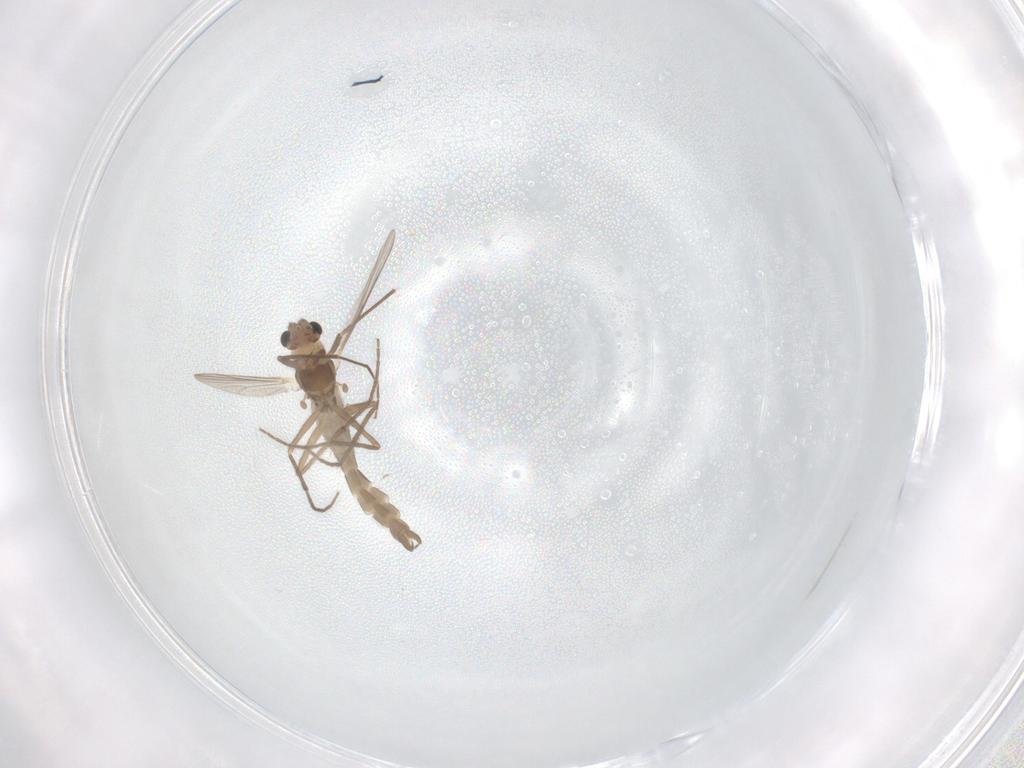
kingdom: Animalia
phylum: Arthropoda
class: Insecta
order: Diptera
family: Chironomidae
